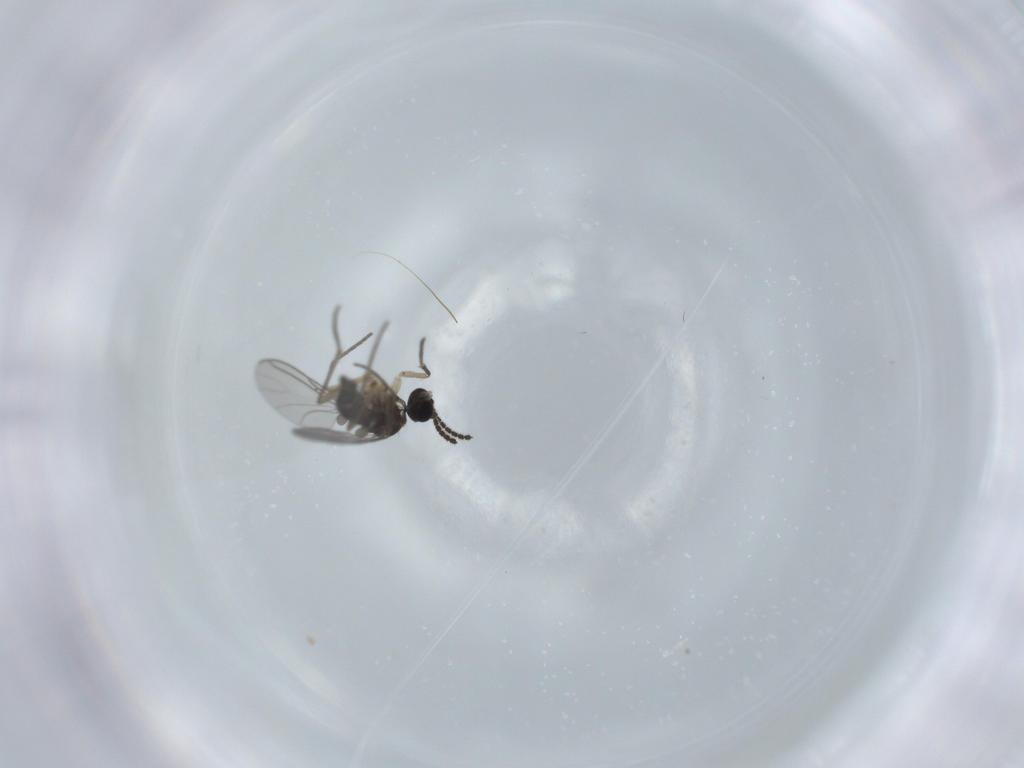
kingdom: Animalia
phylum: Arthropoda
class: Insecta
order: Diptera
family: Sciaridae
